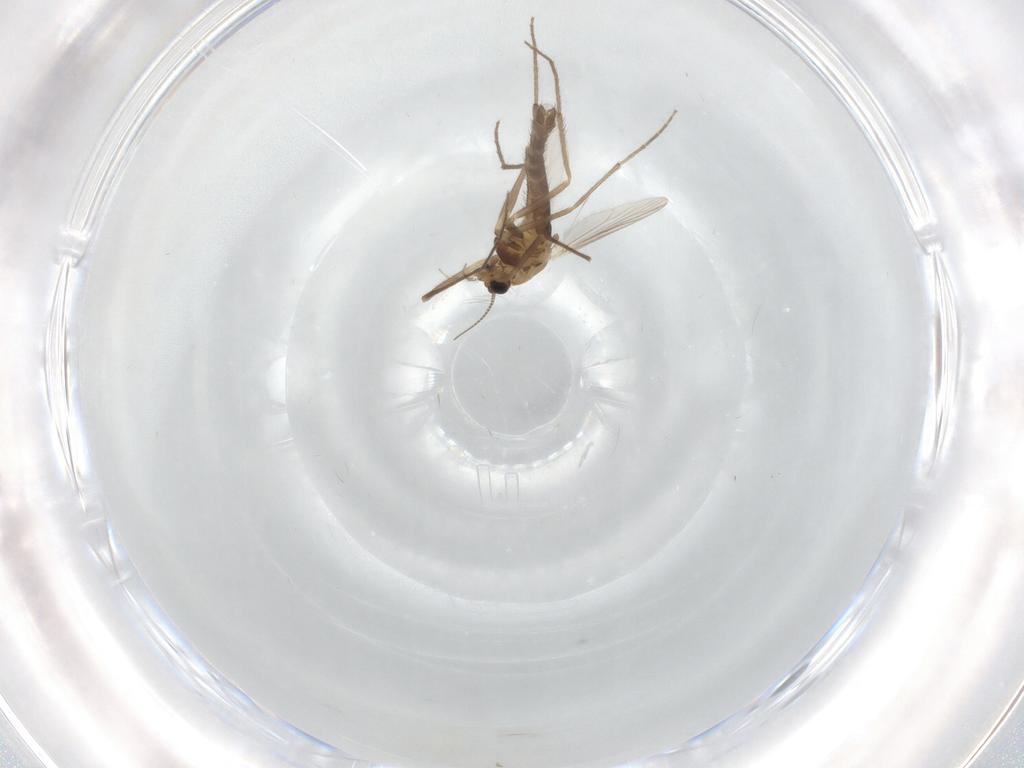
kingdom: Animalia
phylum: Arthropoda
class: Insecta
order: Diptera
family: Chironomidae
